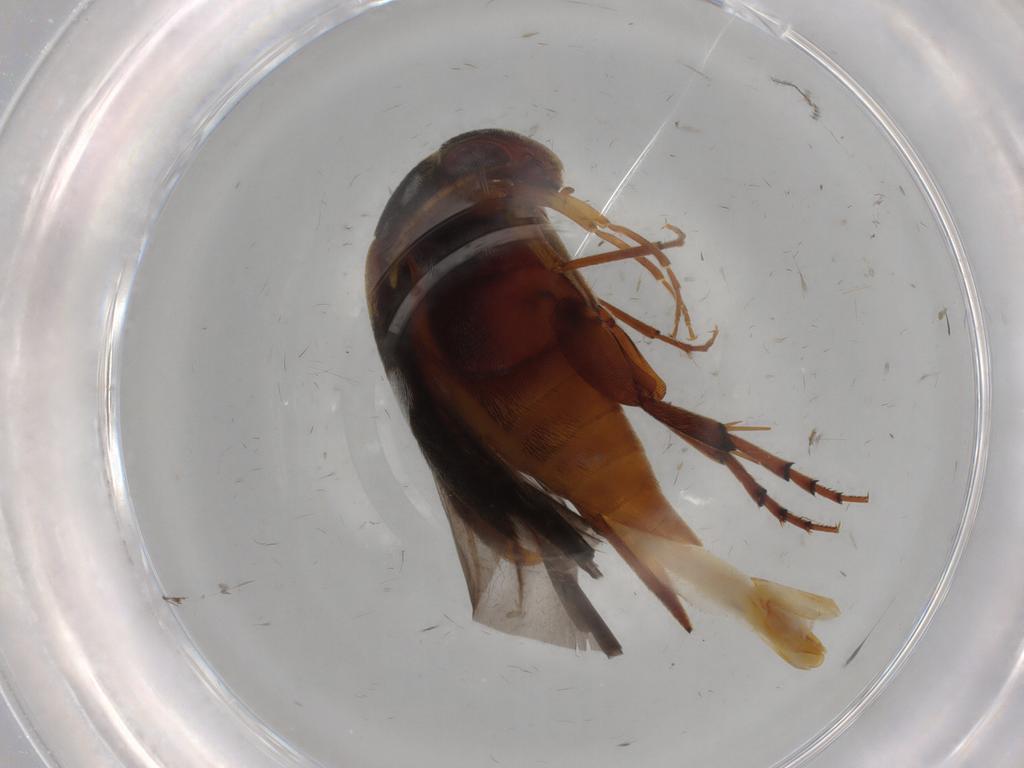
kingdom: Animalia
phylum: Arthropoda
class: Insecta
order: Coleoptera
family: Mordellidae
